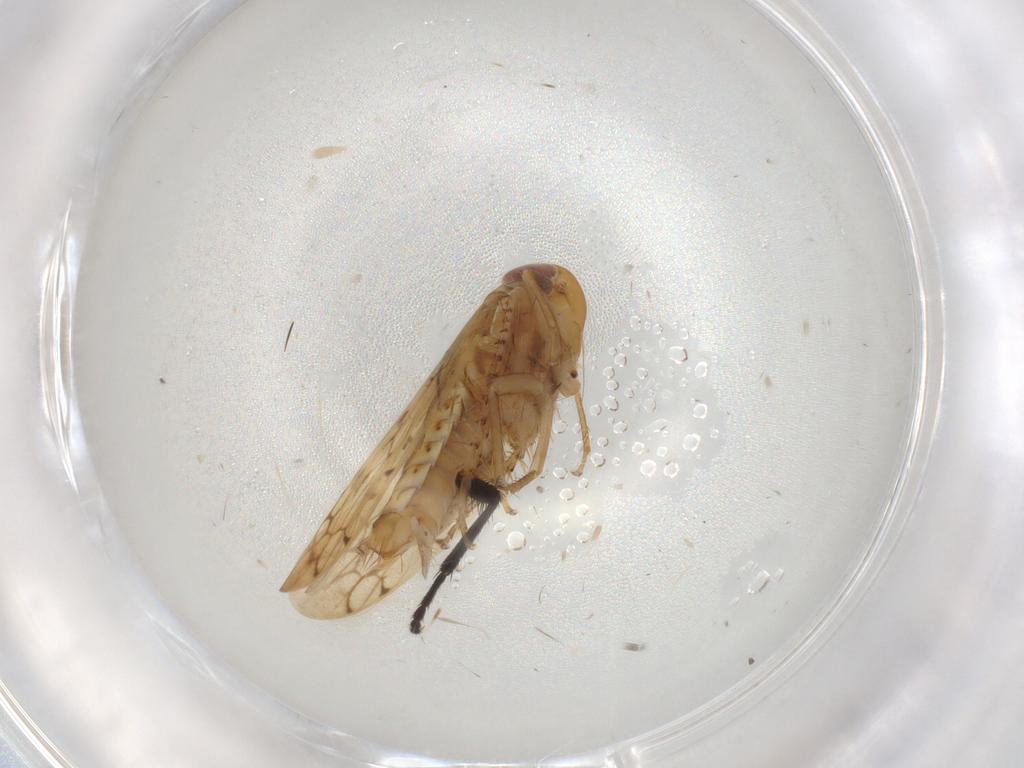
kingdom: Animalia
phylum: Arthropoda
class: Insecta
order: Hemiptera
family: Cicadellidae
